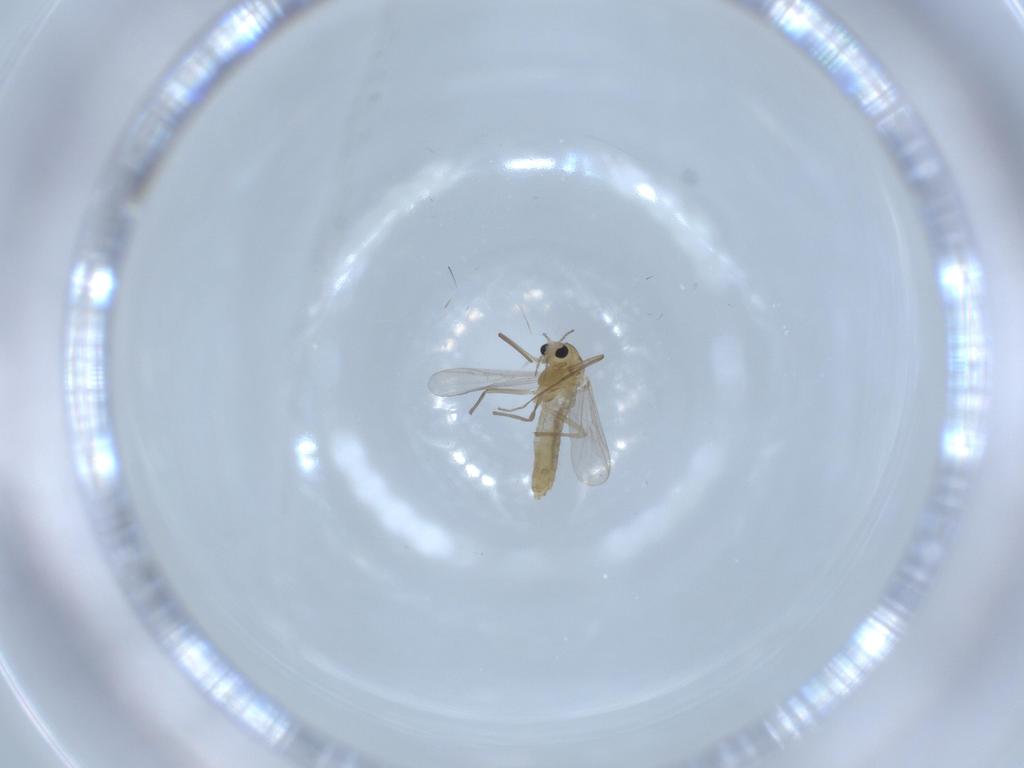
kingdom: Animalia
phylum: Arthropoda
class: Insecta
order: Diptera
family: Chironomidae
